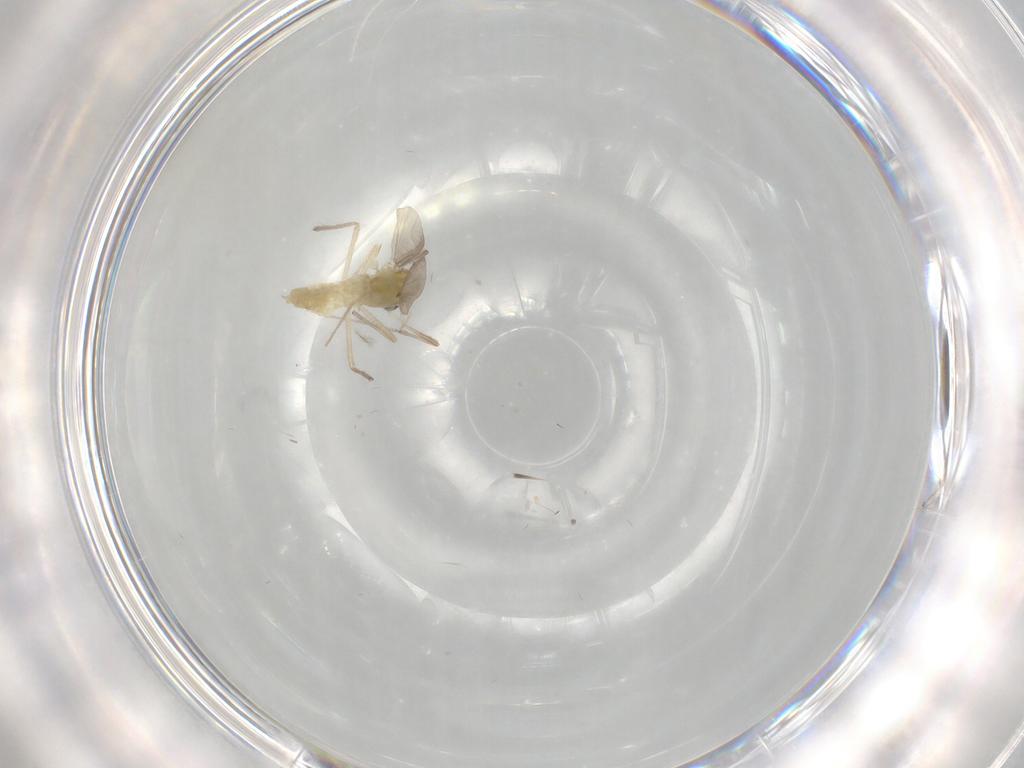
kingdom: Animalia
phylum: Arthropoda
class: Insecta
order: Diptera
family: Chironomidae
